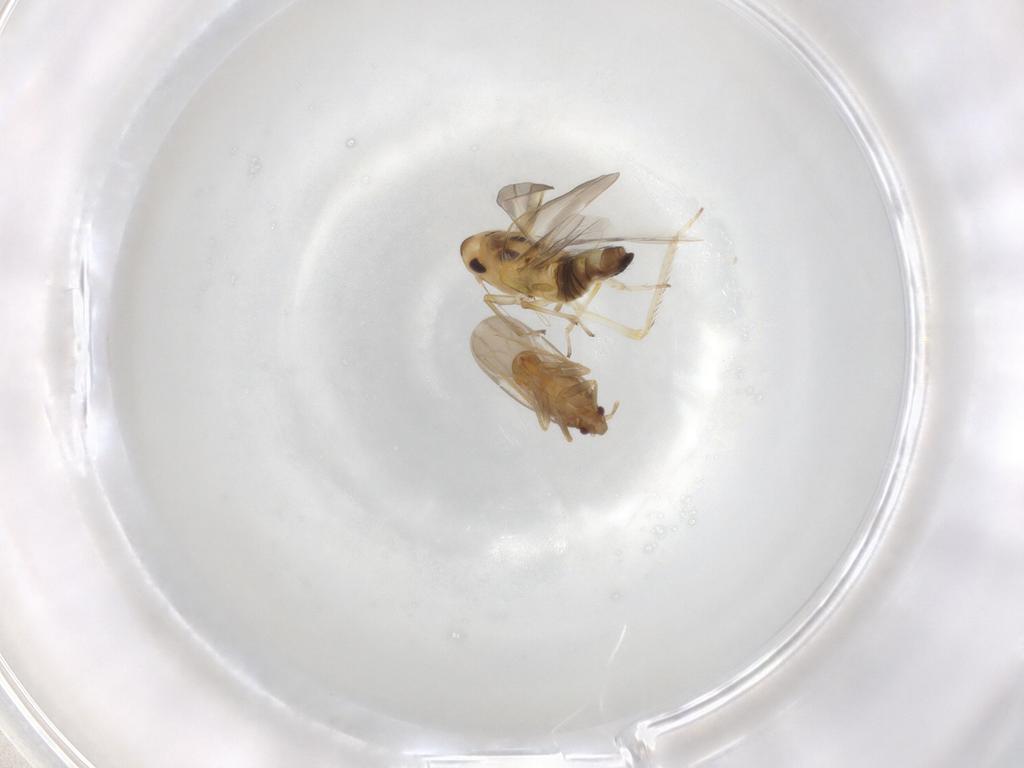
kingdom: Animalia
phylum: Arthropoda
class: Insecta
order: Hemiptera
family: Cicadellidae
